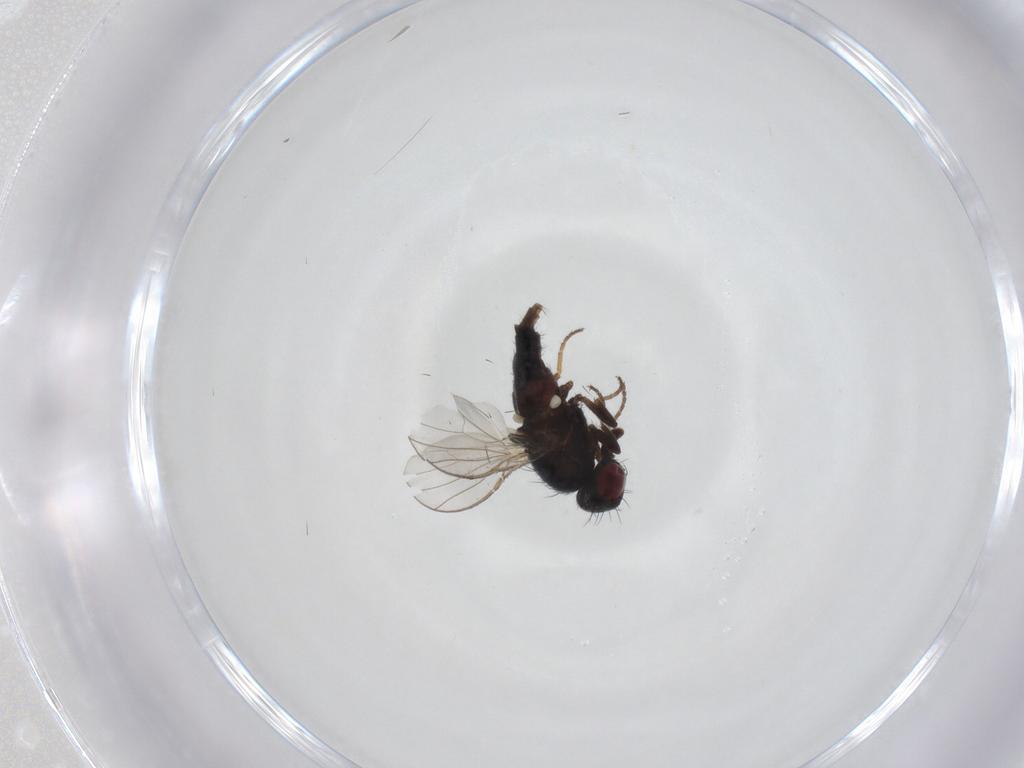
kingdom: Animalia
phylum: Arthropoda
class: Insecta
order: Diptera
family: Carnidae
